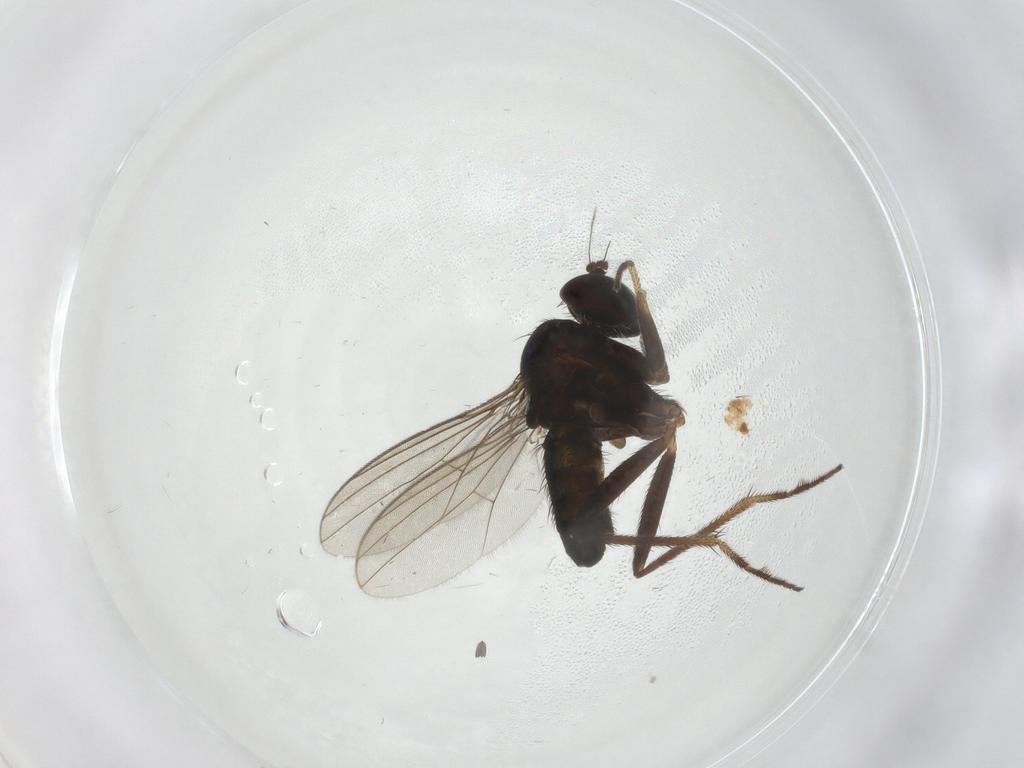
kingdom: Animalia
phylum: Arthropoda
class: Insecta
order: Diptera
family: Dolichopodidae
